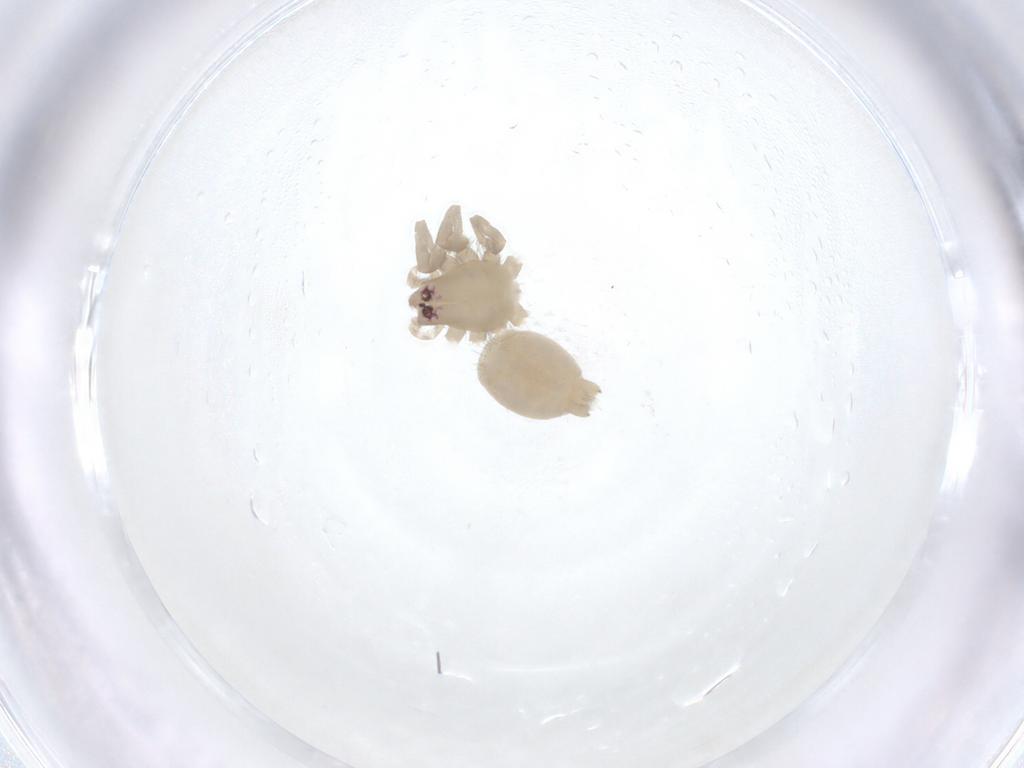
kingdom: Animalia
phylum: Arthropoda
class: Arachnida
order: Araneae
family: Gnaphosidae
